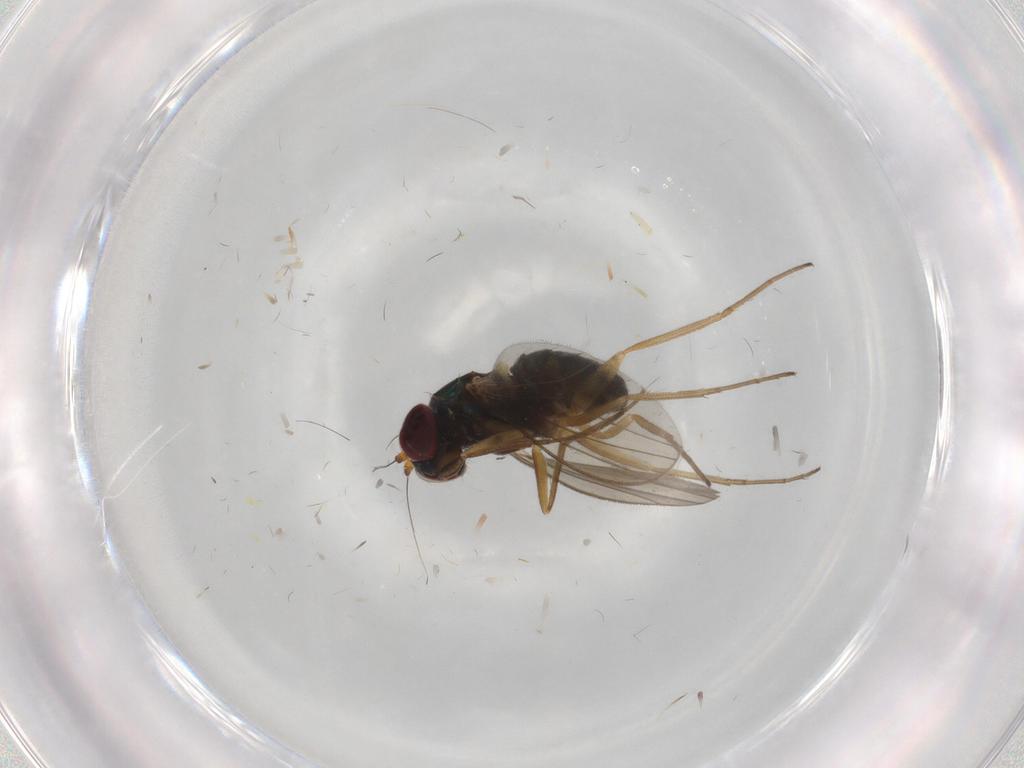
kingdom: Animalia
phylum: Arthropoda
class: Insecta
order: Diptera
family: Dolichopodidae
